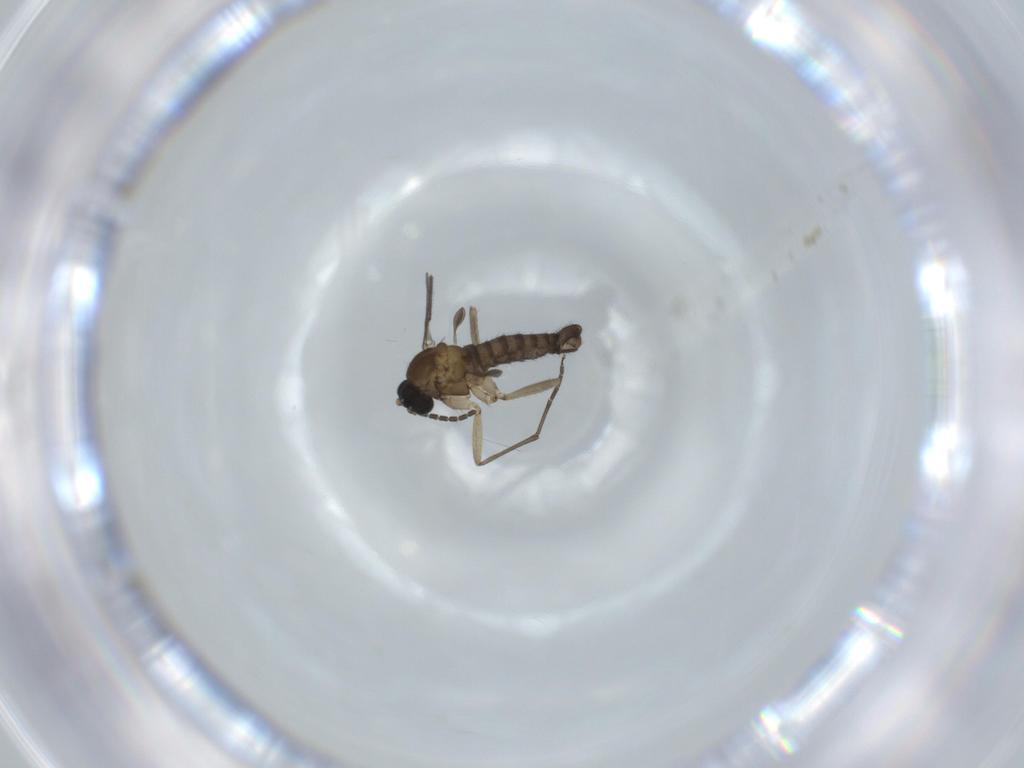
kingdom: Animalia
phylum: Arthropoda
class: Insecta
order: Diptera
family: Sciaridae
